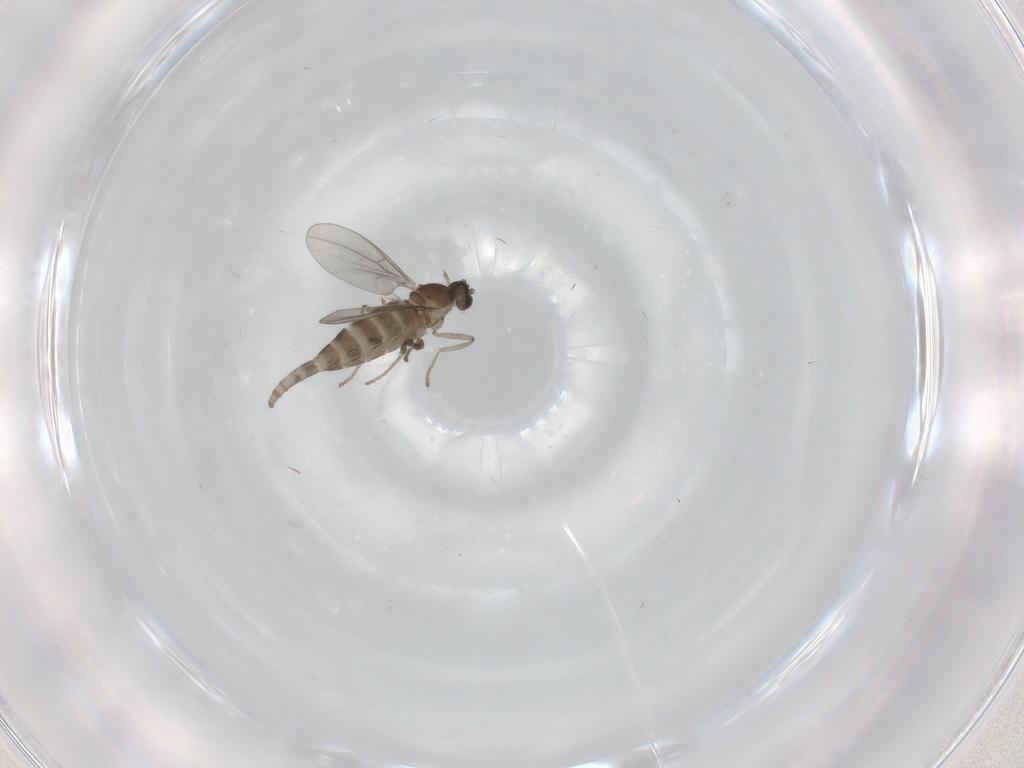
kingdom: Animalia
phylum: Arthropoda
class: Insecta
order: Diptera
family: Cecidomyiidae
